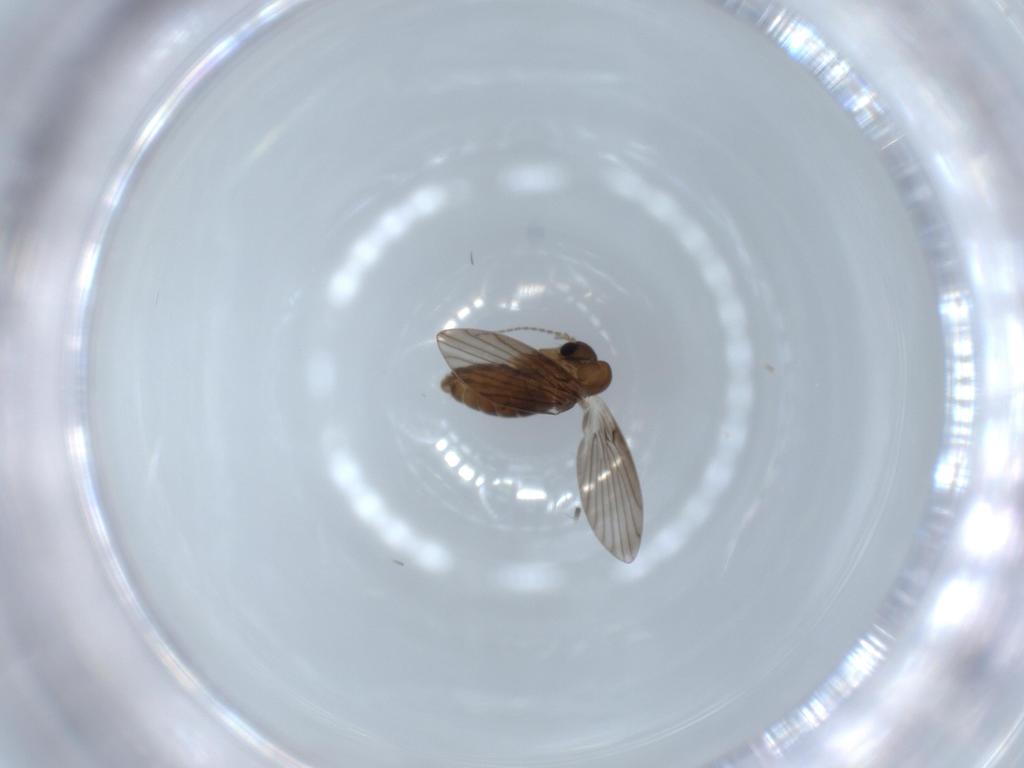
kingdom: Animalia
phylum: Arthropoda
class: Insecta
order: Diptera
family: Psychodidae
